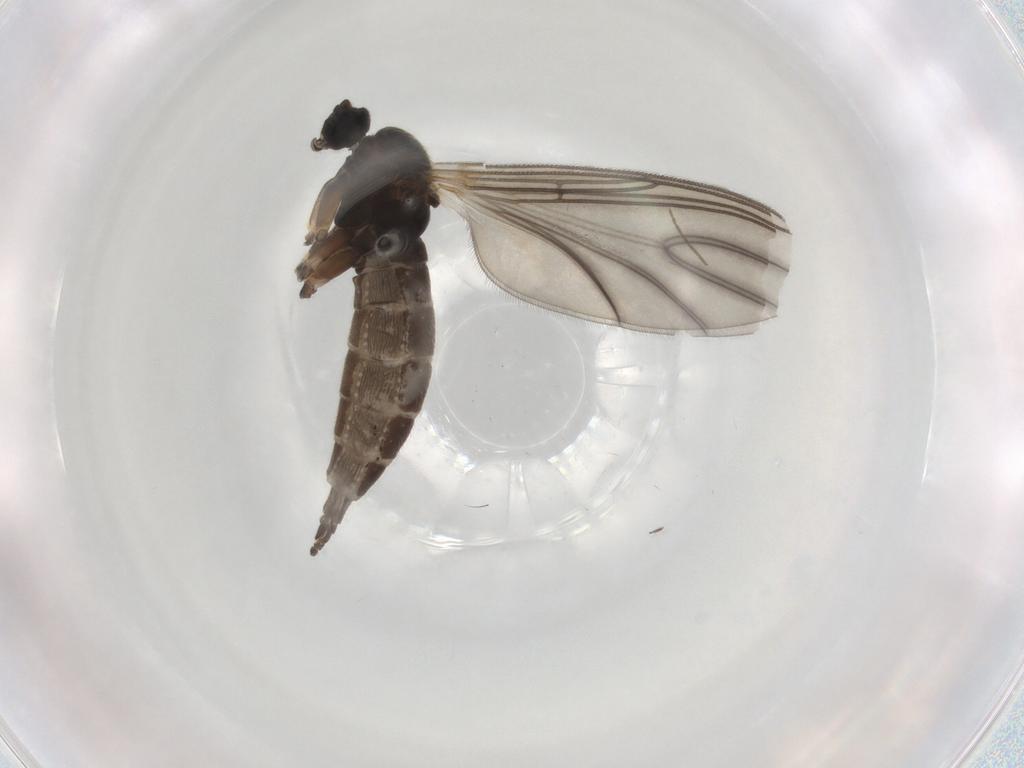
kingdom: Animalia
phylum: Arthropoda
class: Insecta
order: Diptera
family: Sciaridae
